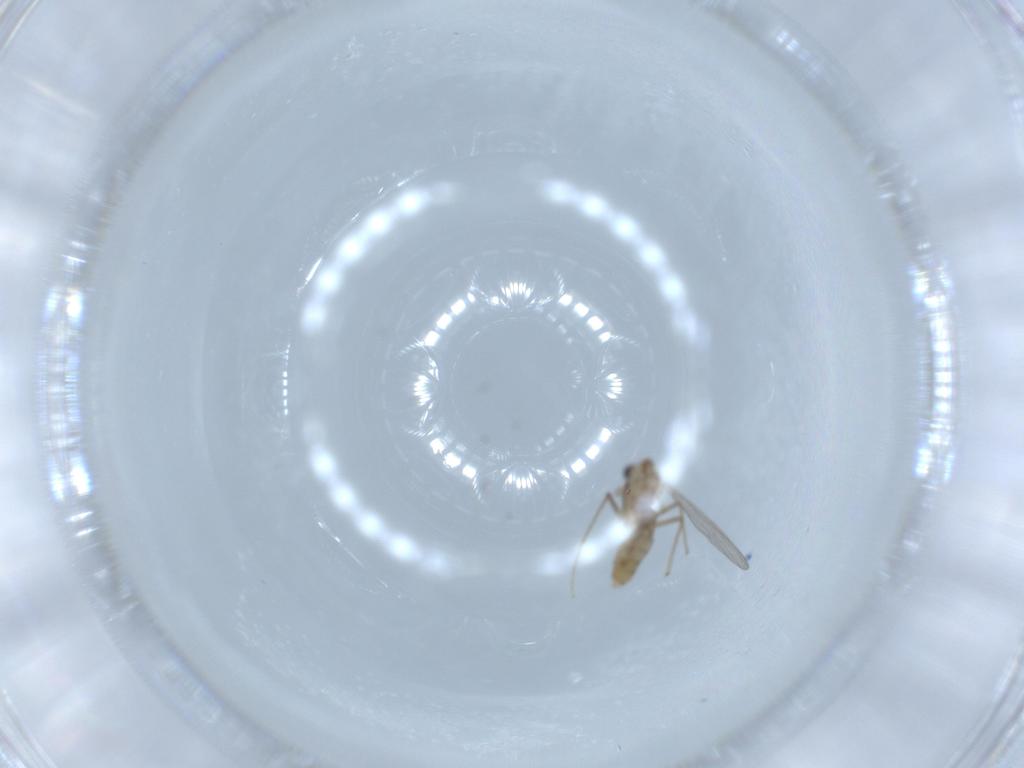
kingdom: Animalia
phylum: Arthropoda
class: Insecta
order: Diptera
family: Chironomidae
